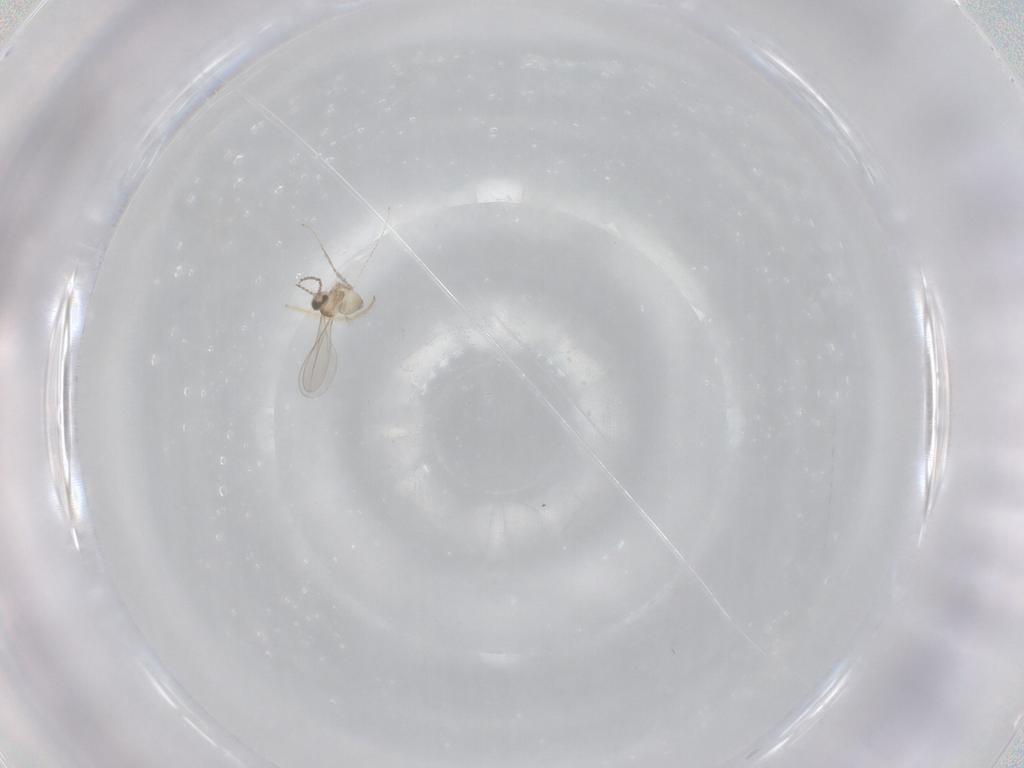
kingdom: Animalia
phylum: Arthropoda
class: Insecta
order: Diptera
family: Cecidomyiidae
